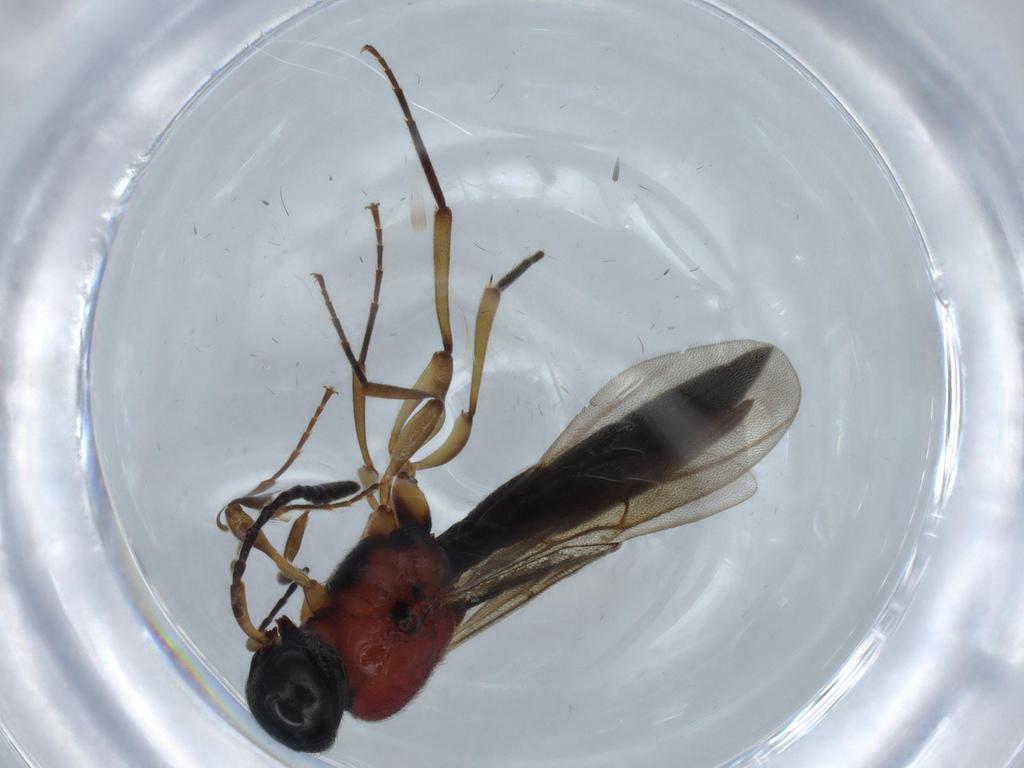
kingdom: Animalia
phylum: Arthropoda
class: Insecta
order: Hymenoptera
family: Scelionidae
